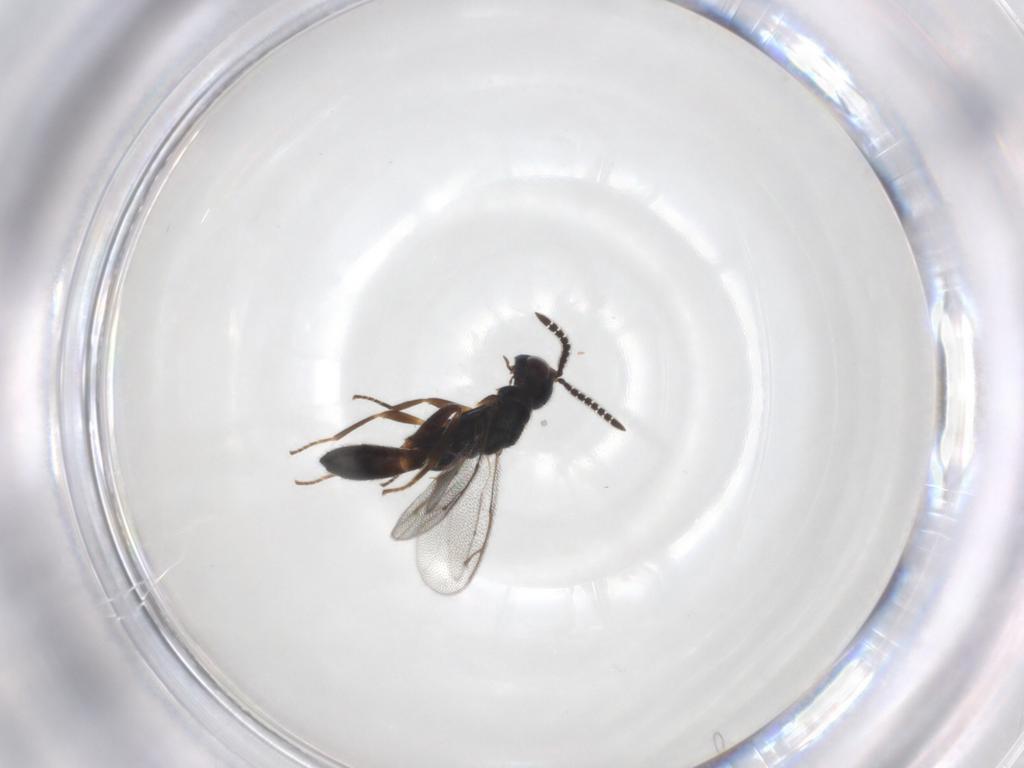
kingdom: Animalia
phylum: Arthropoda
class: Insecta
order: Hymenoptera
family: Cleonyminae
